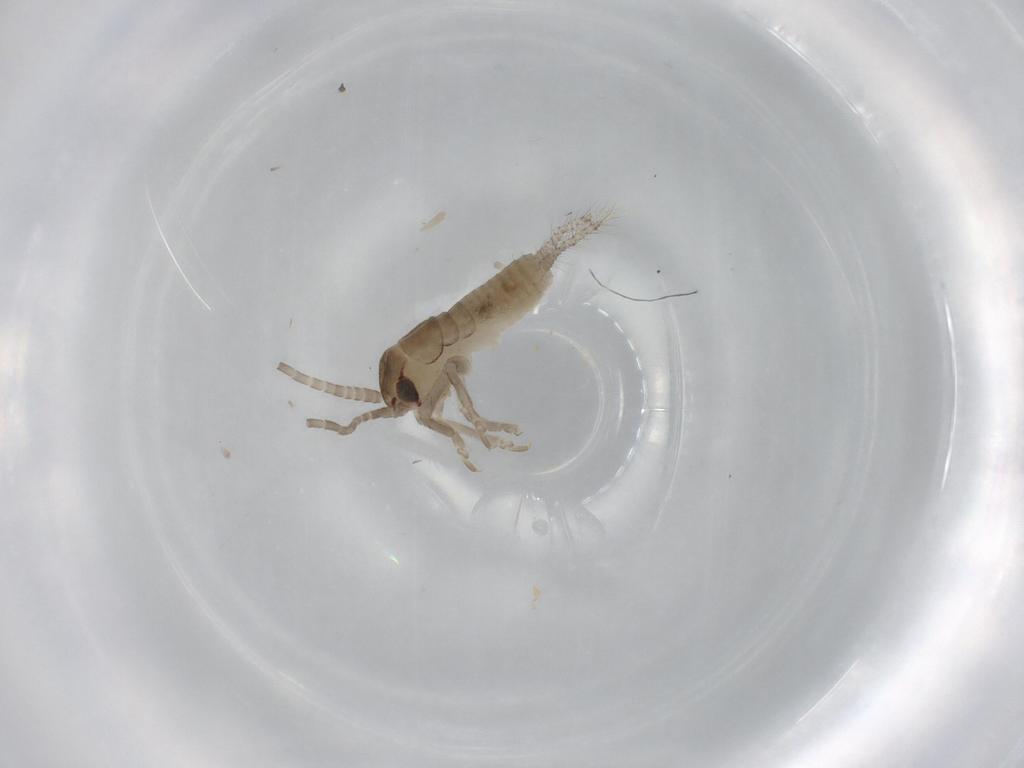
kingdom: Animalia
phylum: Arthropoda
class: Insecta
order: Orthoptera
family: Gryllidae
